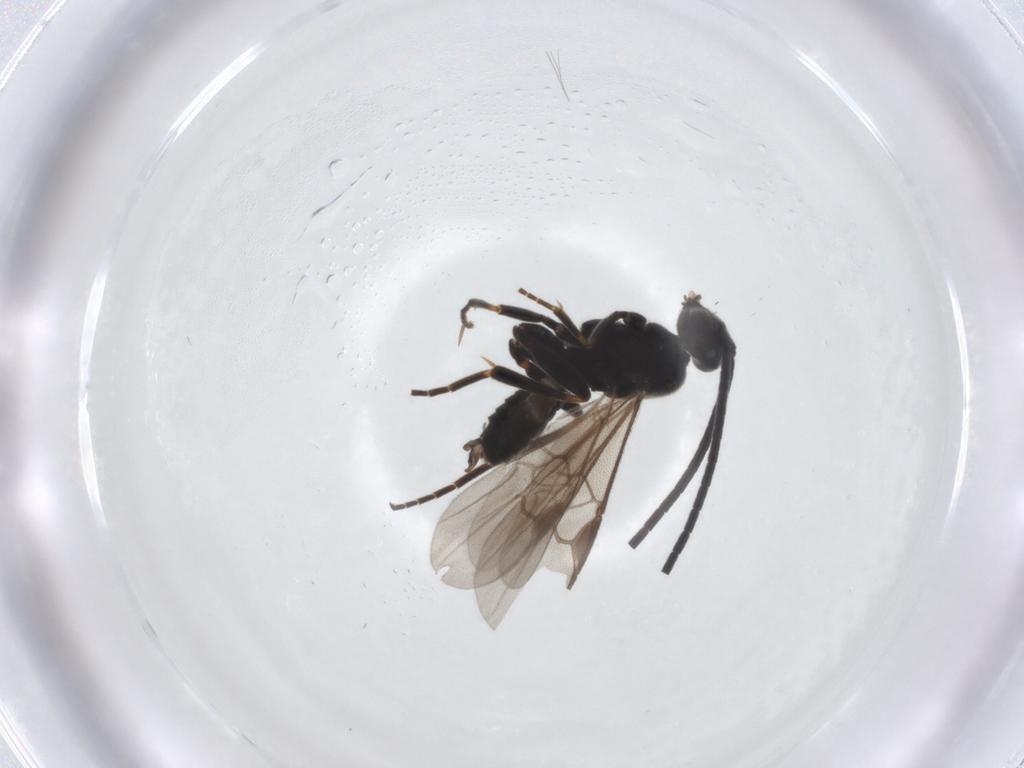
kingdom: Animalia
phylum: Arthropoda
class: Insecta
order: Hymenoptera
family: Braconidae
